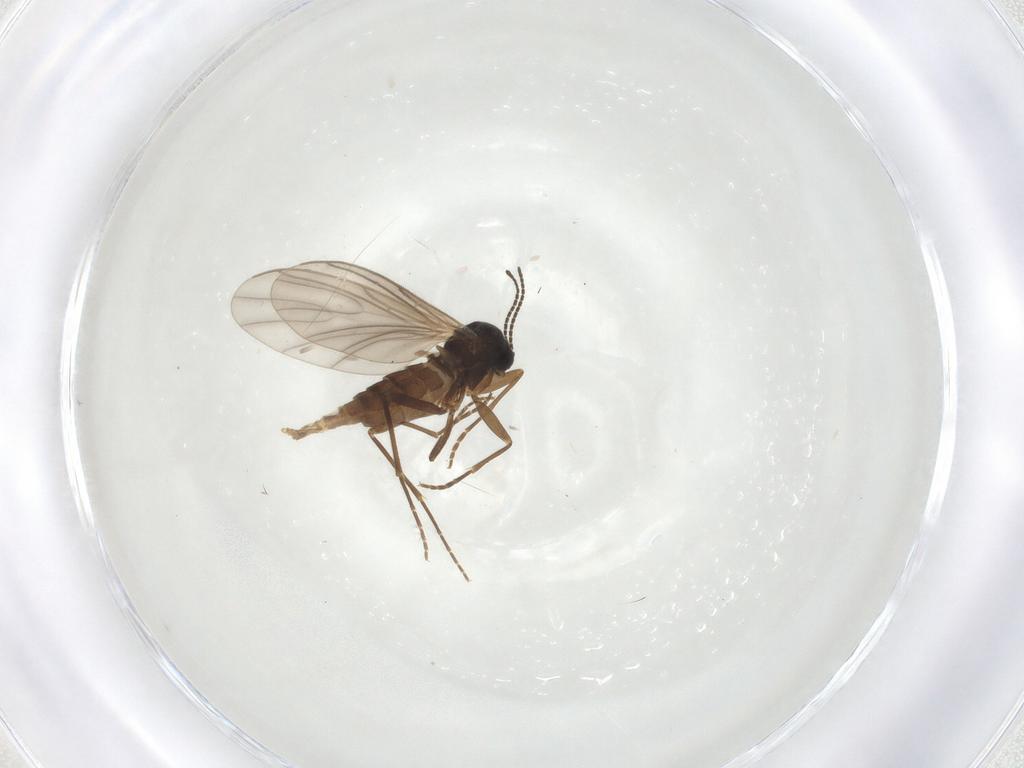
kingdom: Animalia
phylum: Arthropoda
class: Insecta
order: Diptera
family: Sciaridae
